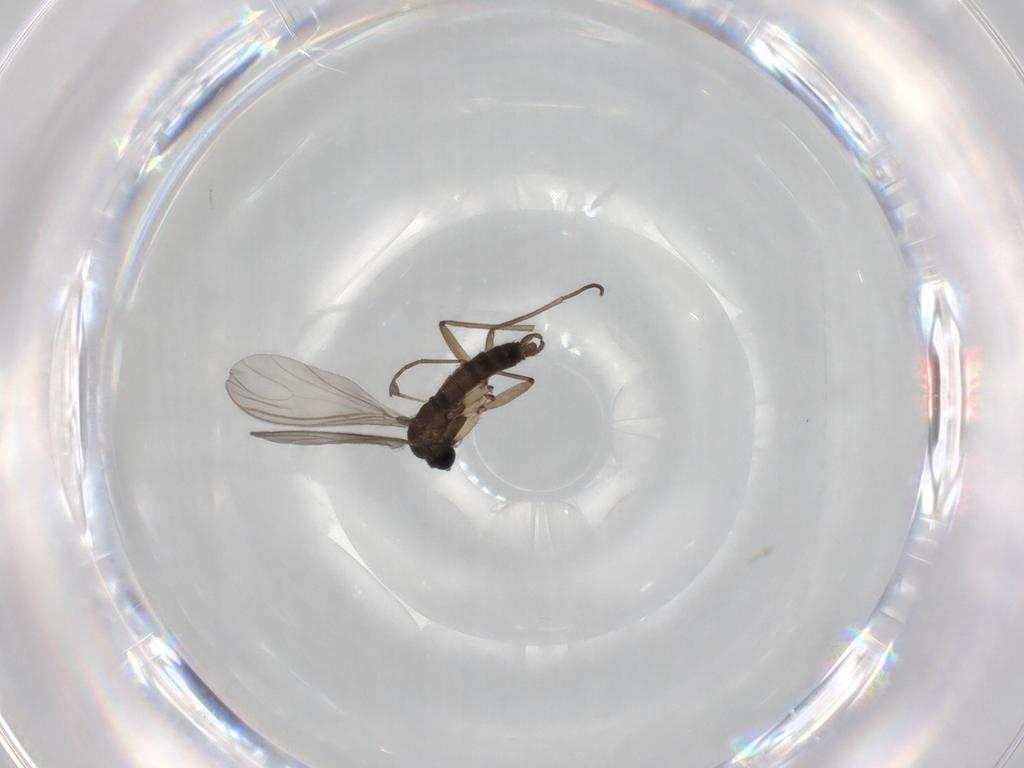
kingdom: Animalia
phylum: Arthropoda
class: Insecta
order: Diptera
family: Sciaridae
